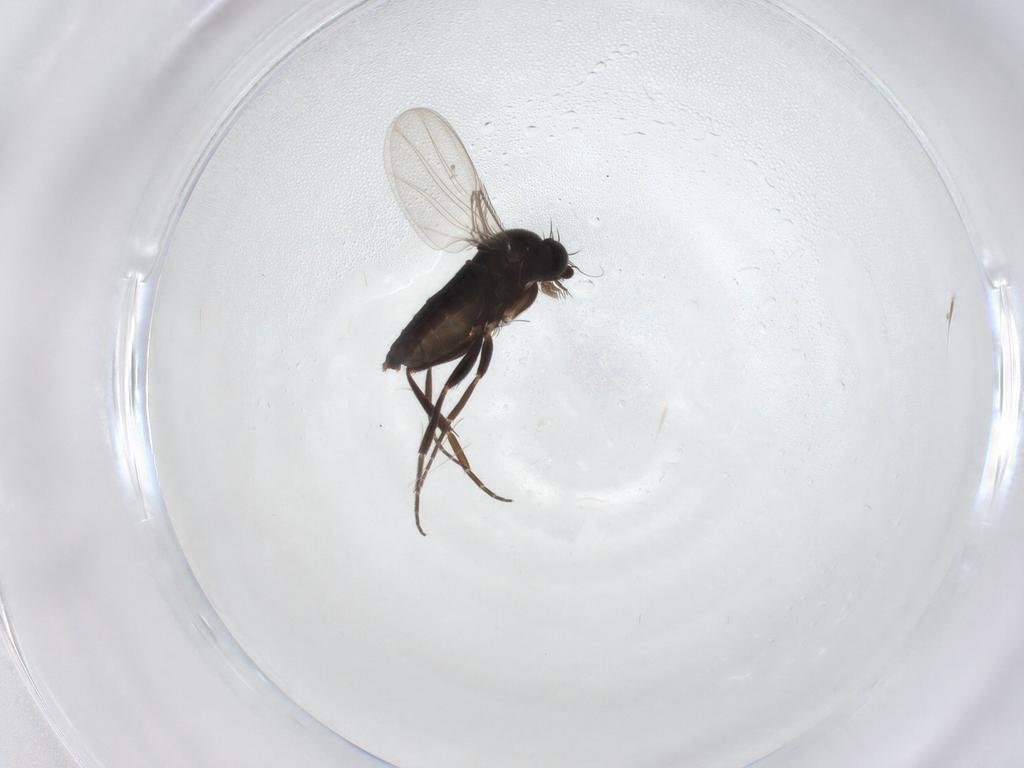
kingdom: Animalia
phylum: Arthropoda
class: Insecta
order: Diptera
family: Phoridae
